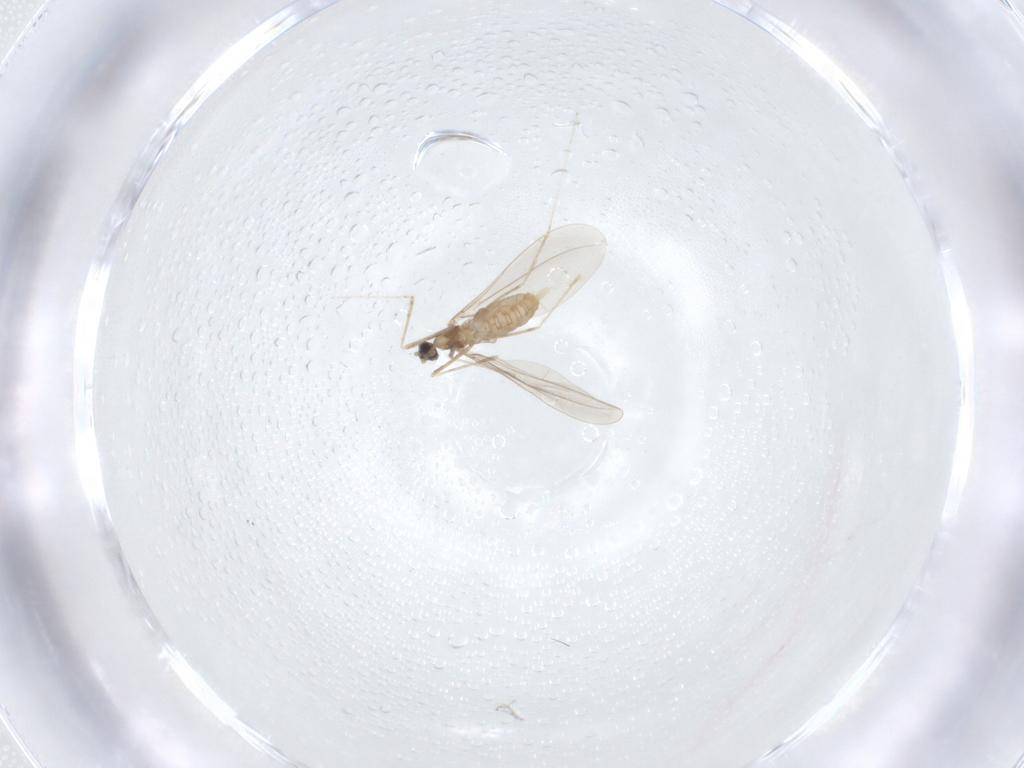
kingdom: Animalia
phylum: Arthropoda
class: Insecta
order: Diptera
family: Cecidomyiidae
